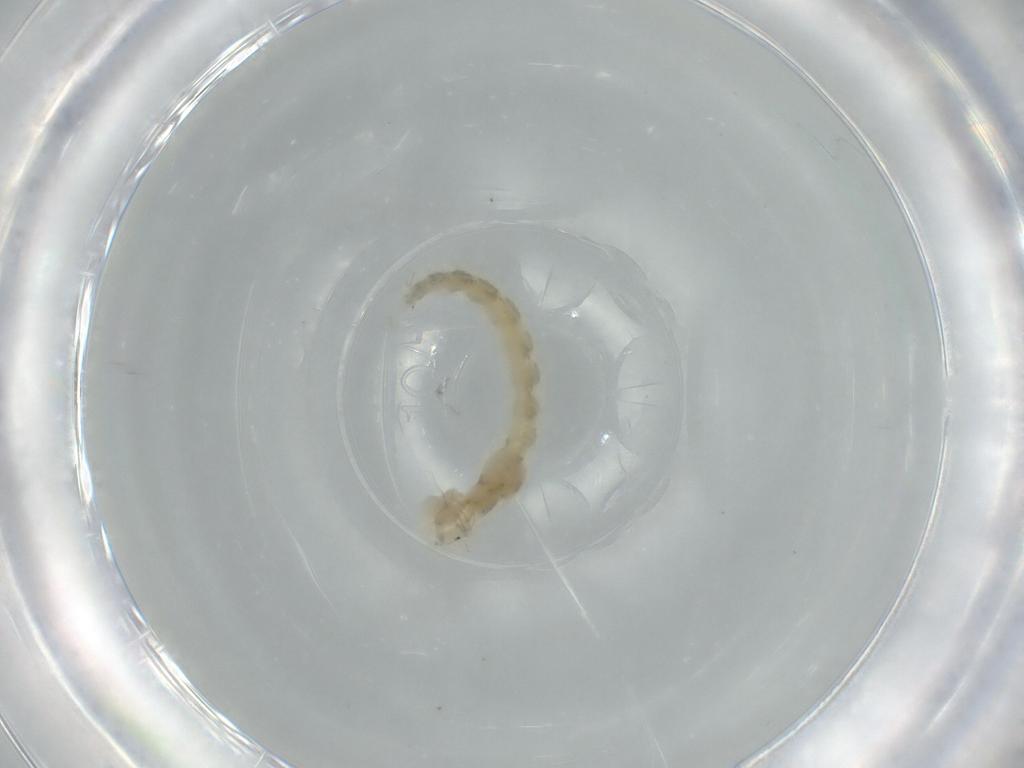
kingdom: Animalia
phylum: Arthropoda
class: Insecta
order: Diptera
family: Chironomidae
